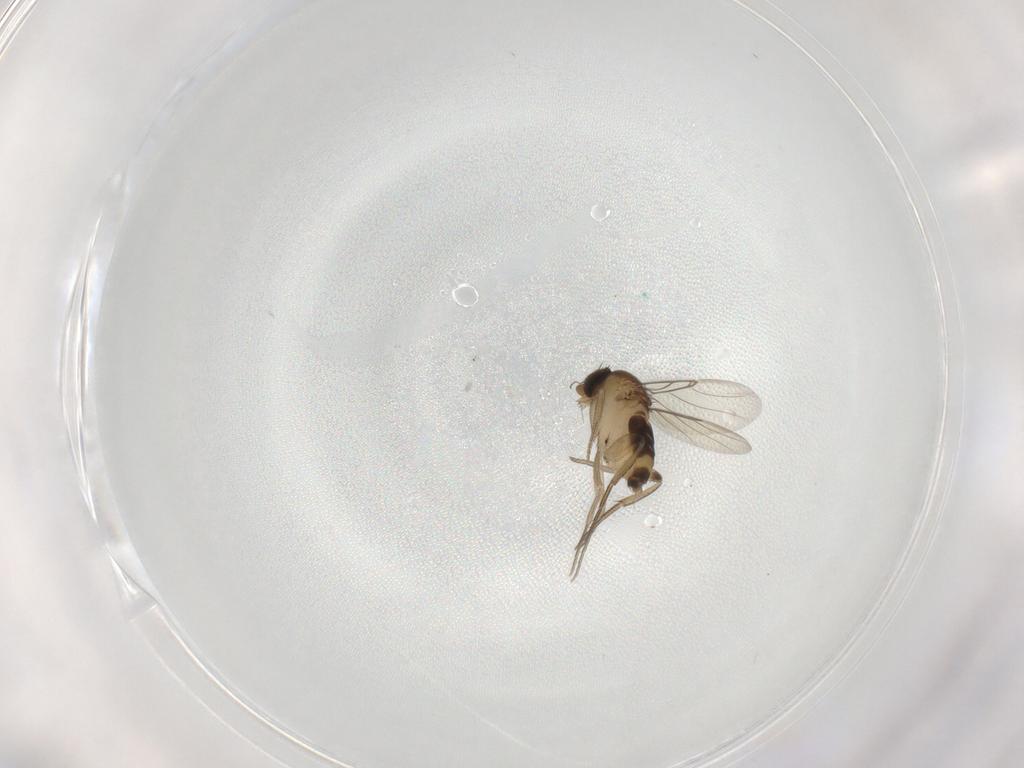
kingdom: Animalia
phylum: Arthropoda
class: Insecta
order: Diptera
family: Phoridae
